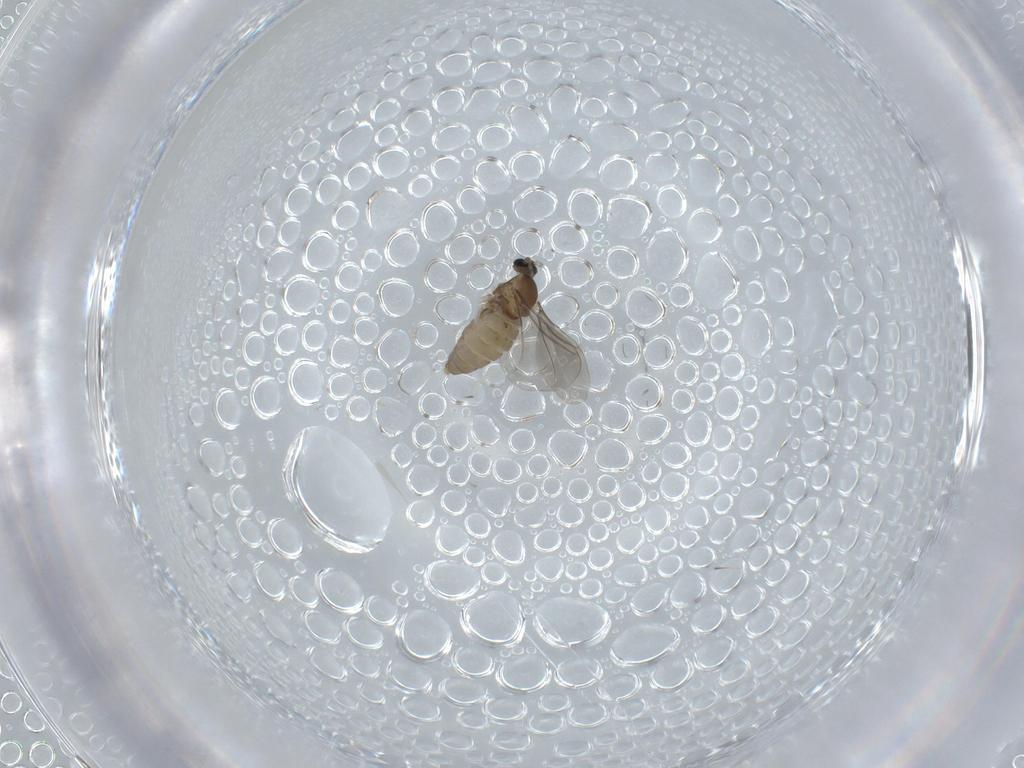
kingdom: Animalia
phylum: Arthropoda
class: Insecta
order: Diptera
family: Cecidomyiidae
